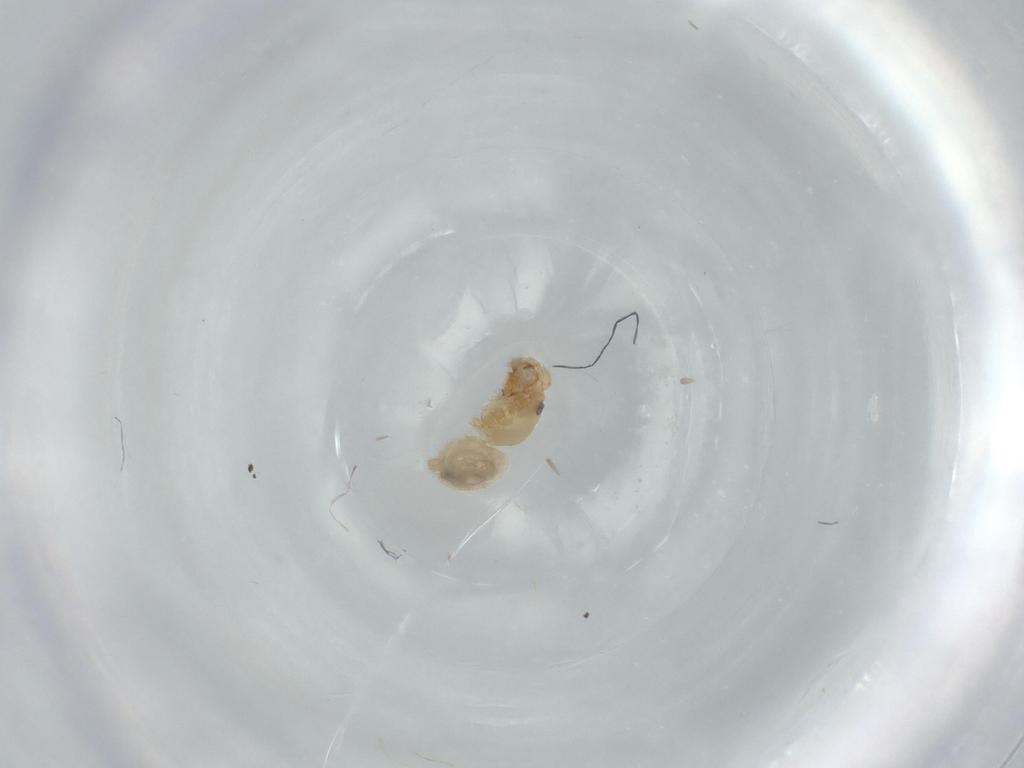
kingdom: Animalia
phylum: Arthropoda
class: Arachnida
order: Araneae
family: Oonopidae
